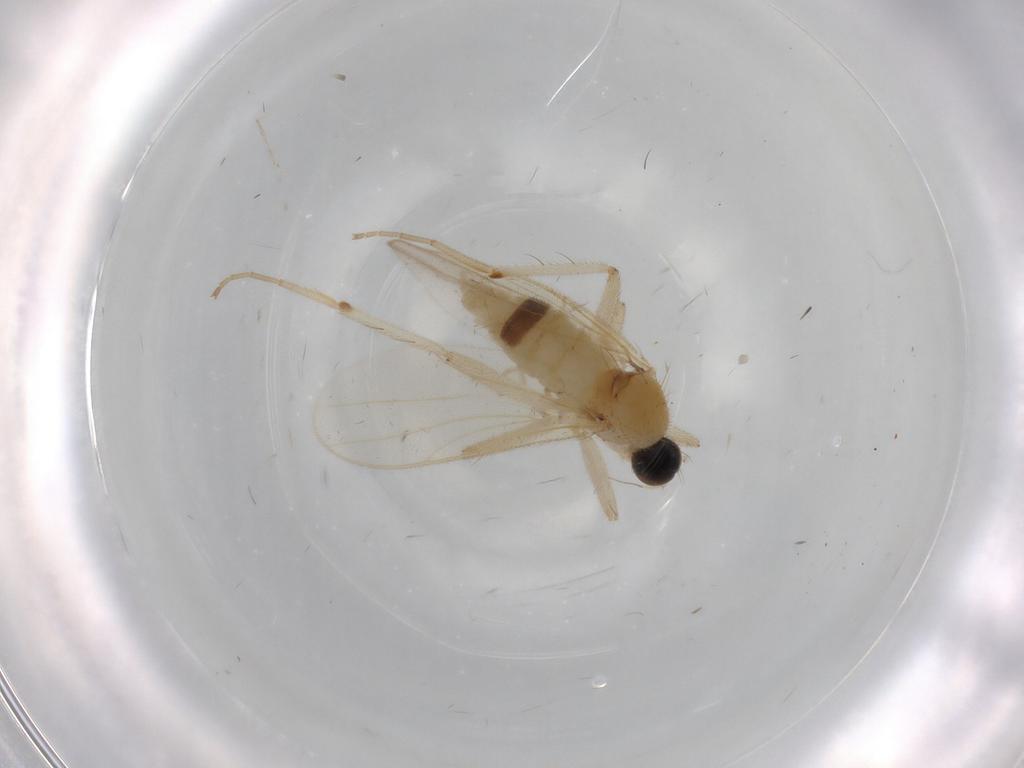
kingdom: Animalia
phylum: Arthropoda
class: Insecta
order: Diptera
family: Hybotidae
